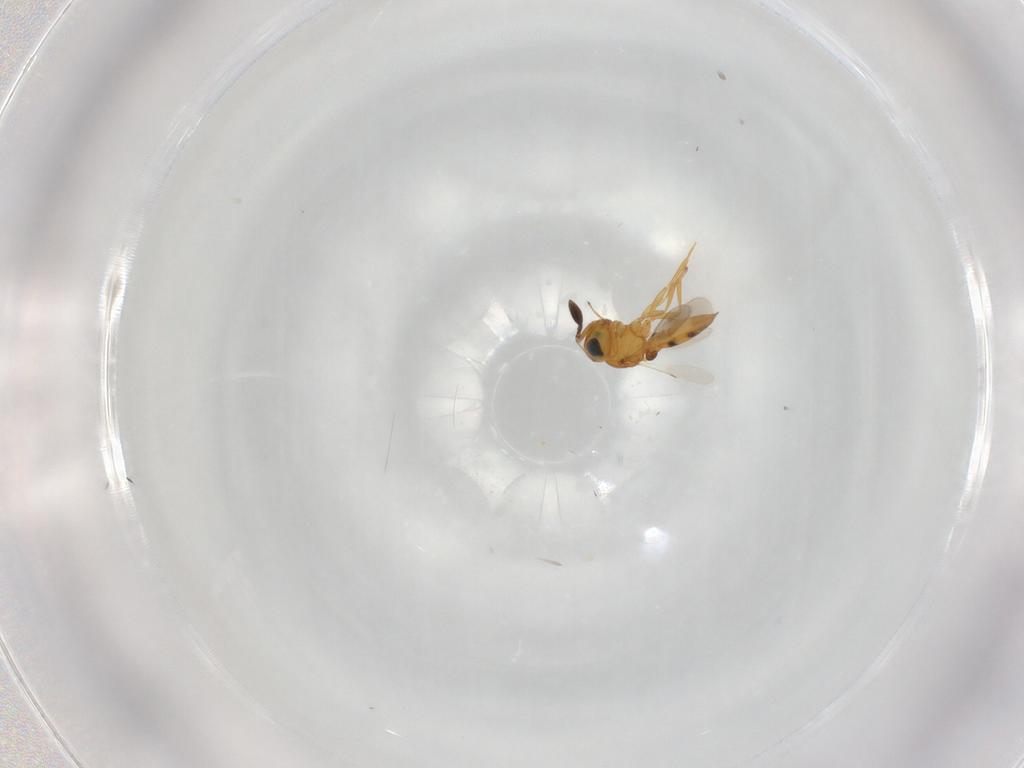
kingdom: Animalia
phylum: Arthropoda
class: Insecta
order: Hymenoptera
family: Scelionidae
